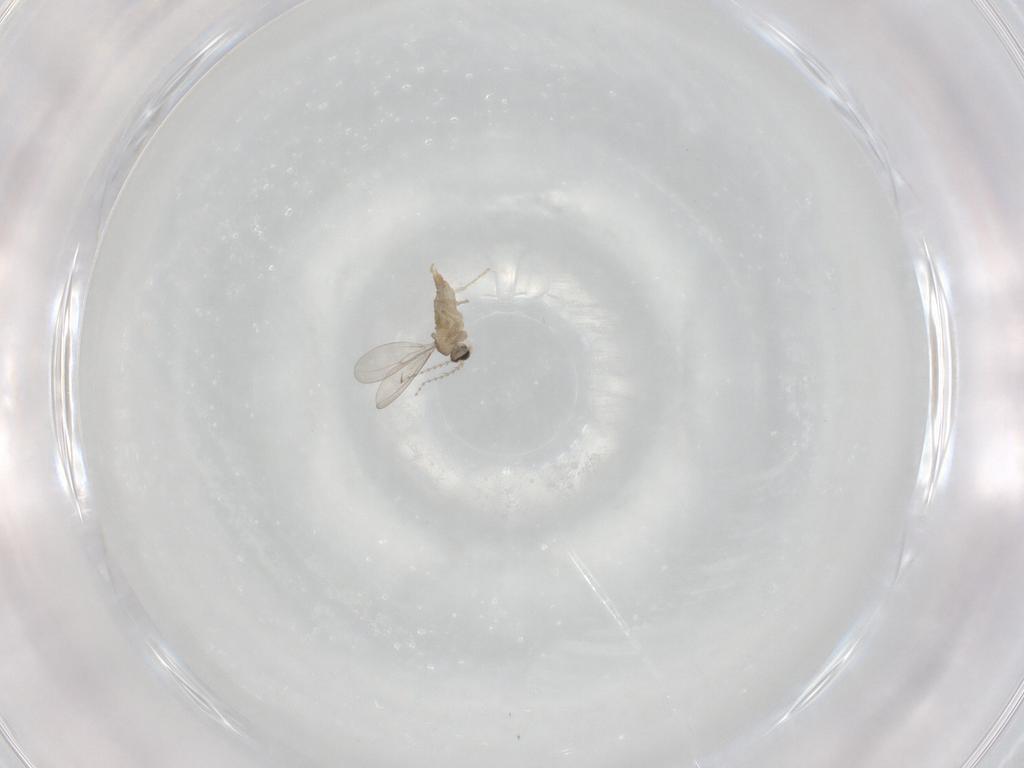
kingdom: Animalia
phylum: Arthropoda
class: Insecta
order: Diptera
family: Cecidomyiidae
